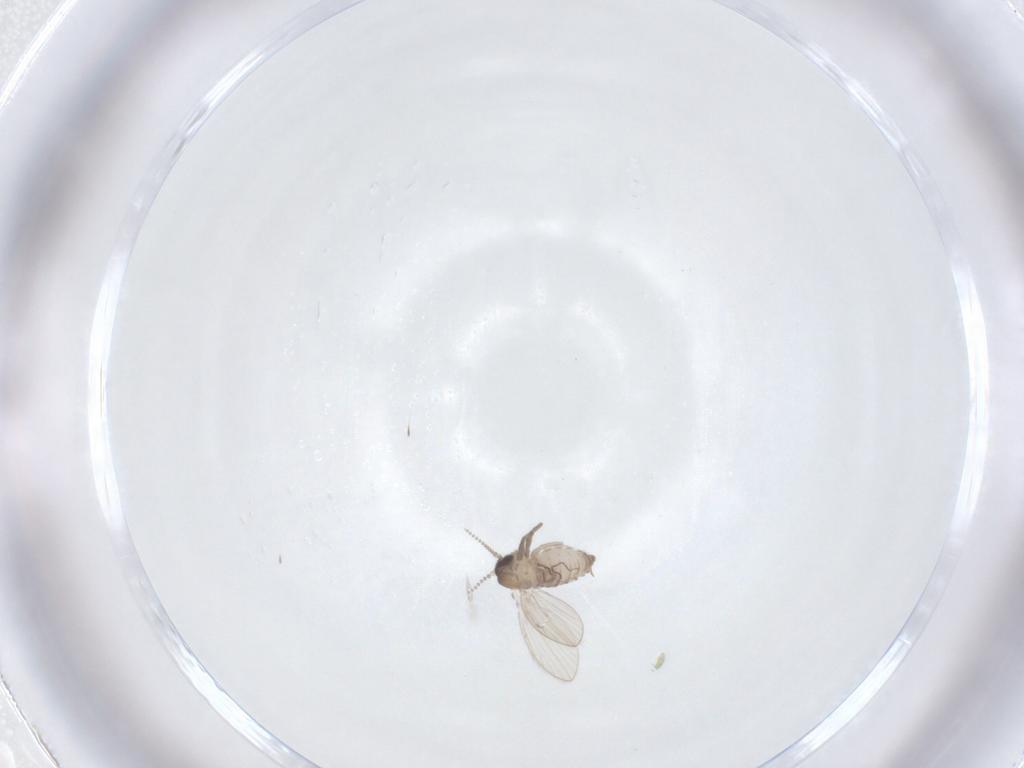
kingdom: Animalia
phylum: Arthropoda
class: Insecta
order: Diptera
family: Psychodidae
